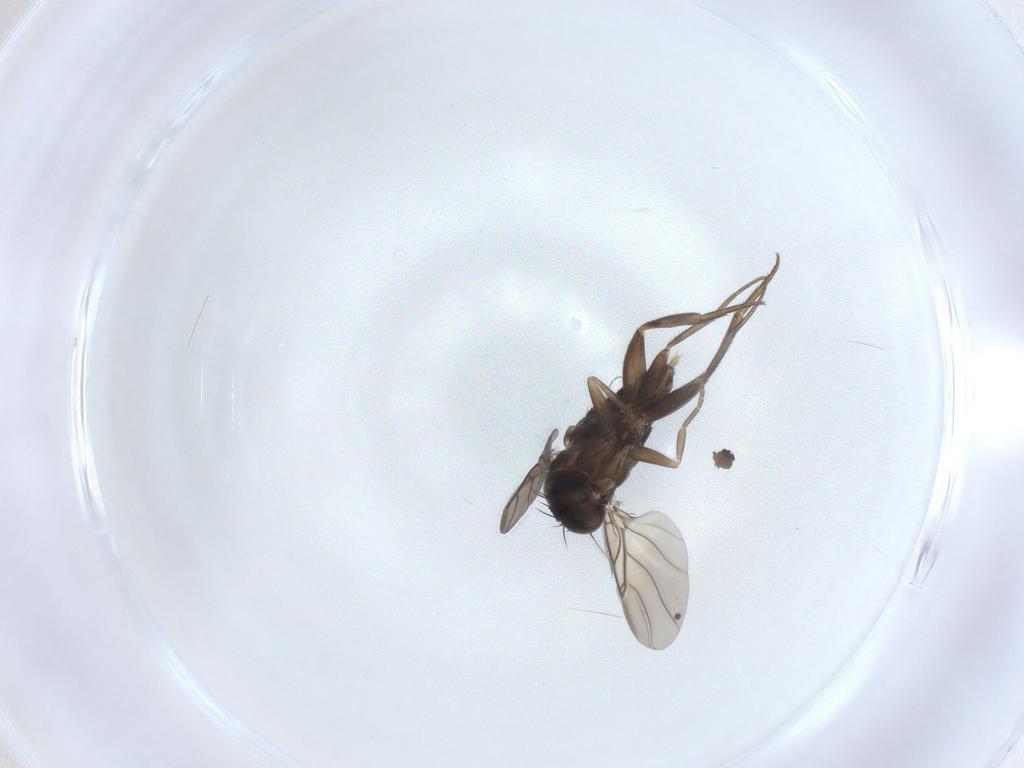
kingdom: Animalia
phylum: Arthropoda
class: Insecta
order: Diptera
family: Phoridae
